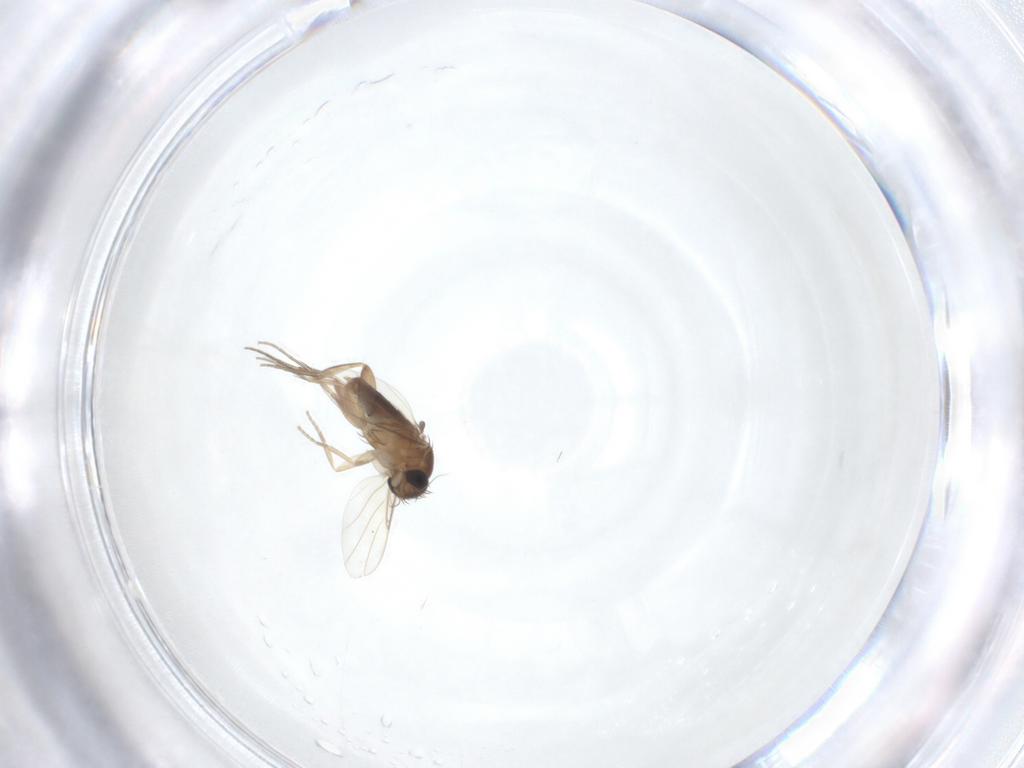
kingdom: Animalia
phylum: Arthropoda
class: Insecta
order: Diptera
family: Phoridae
